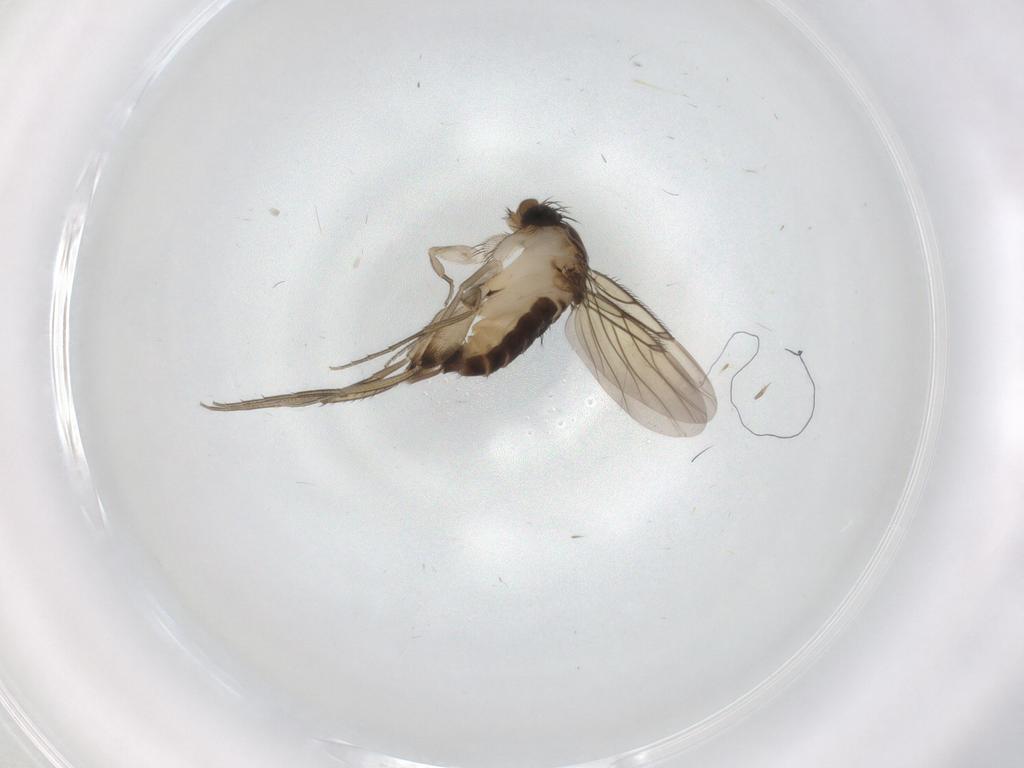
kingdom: Animalia
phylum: Arthropoda
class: Insecta
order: Diptera
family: Phoridae
